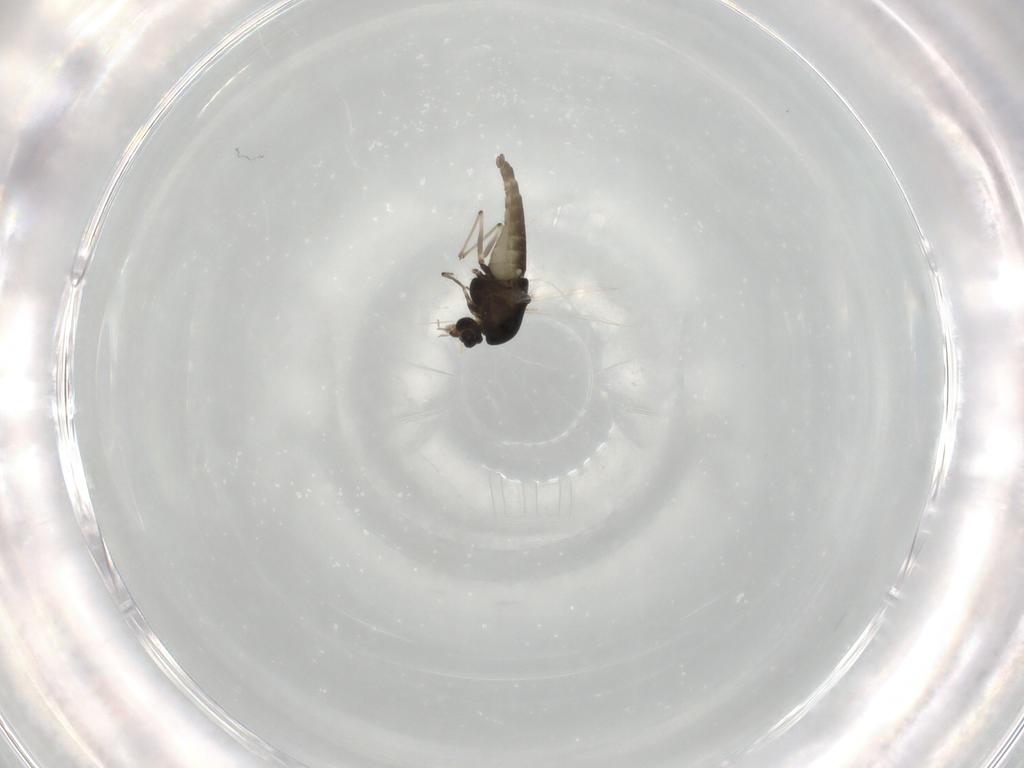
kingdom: Animalia
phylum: Arthropoda
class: Insecta
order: Diptera
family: Chironomidae
